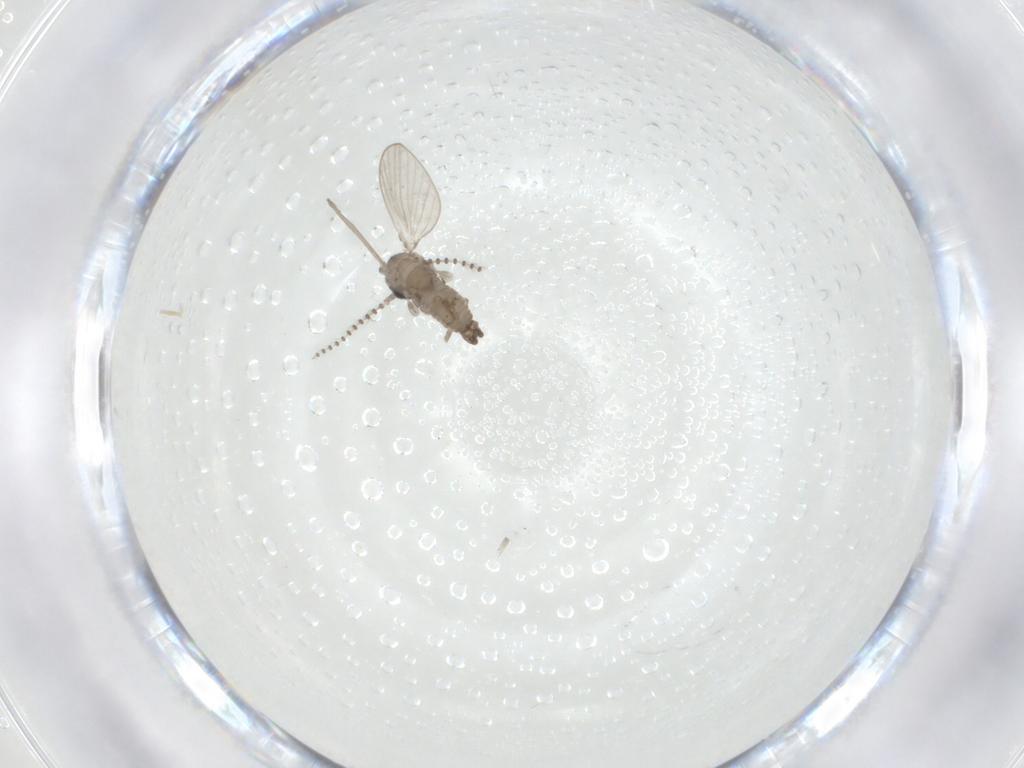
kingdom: Animalia
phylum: Arthropoda
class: Insecta
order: Diptera
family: Psychodidae
